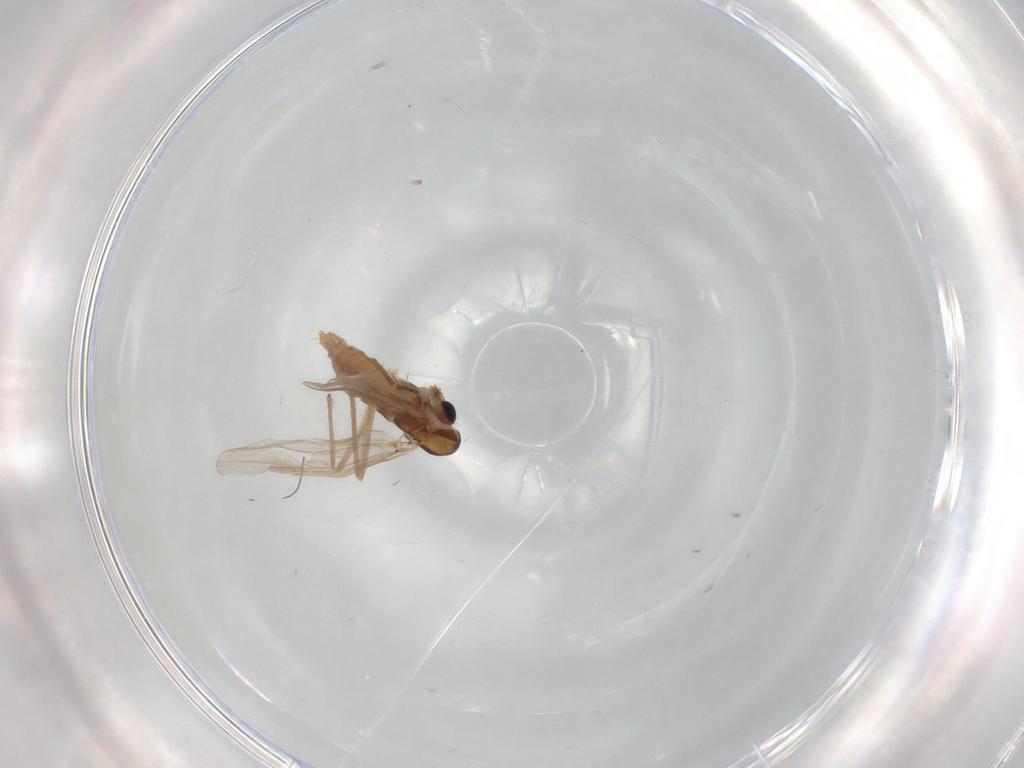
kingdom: Animalia
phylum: Arthropoda
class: Insecta
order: Diptera
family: Chironomidae
